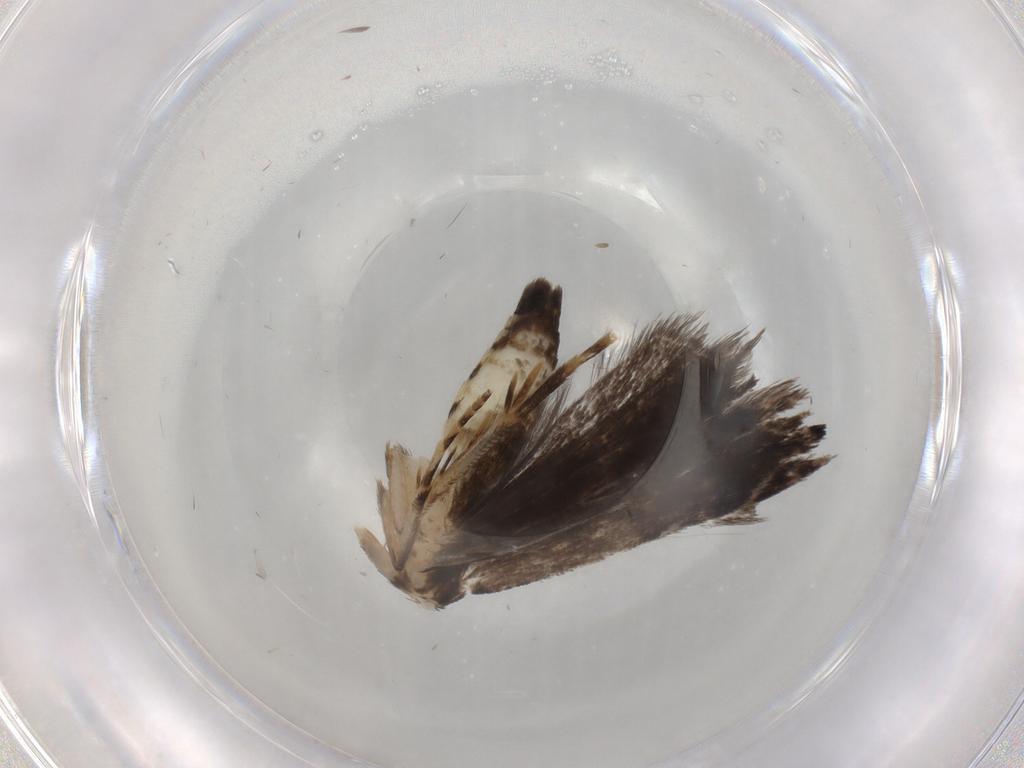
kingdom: Animalia
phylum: Arthropoda
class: Insecta
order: Lepidoptera
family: Gelechiidae
